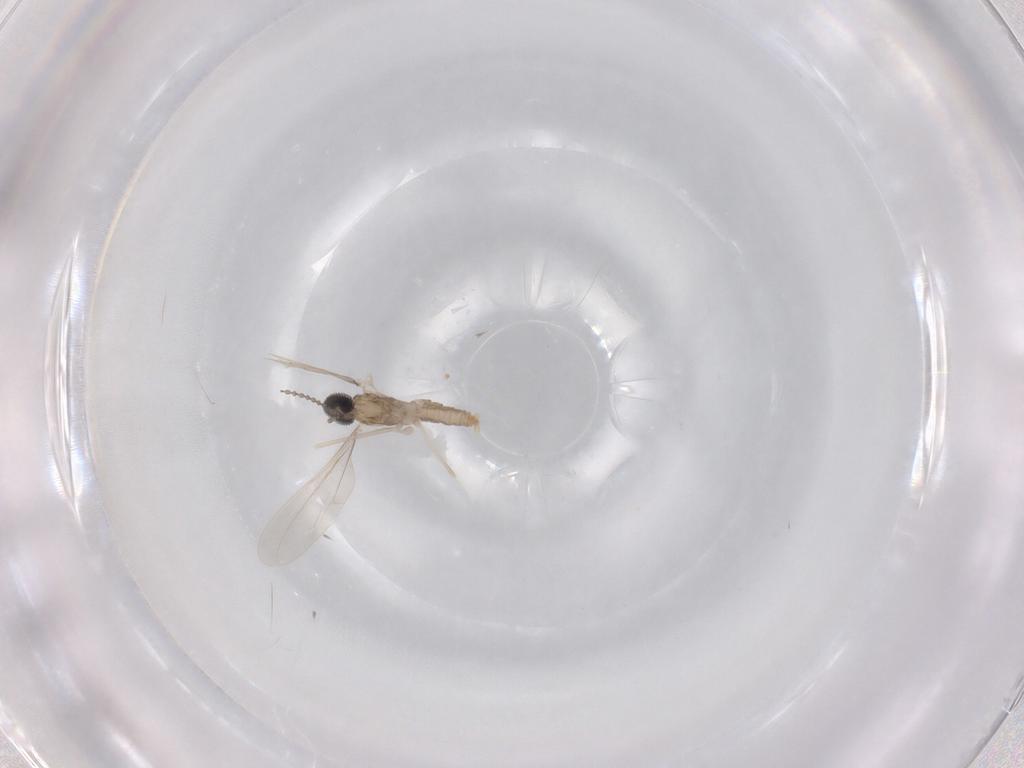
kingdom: Animalia
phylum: Arthropoda
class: Insecta
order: Diptera
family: Cecidomyiidae
